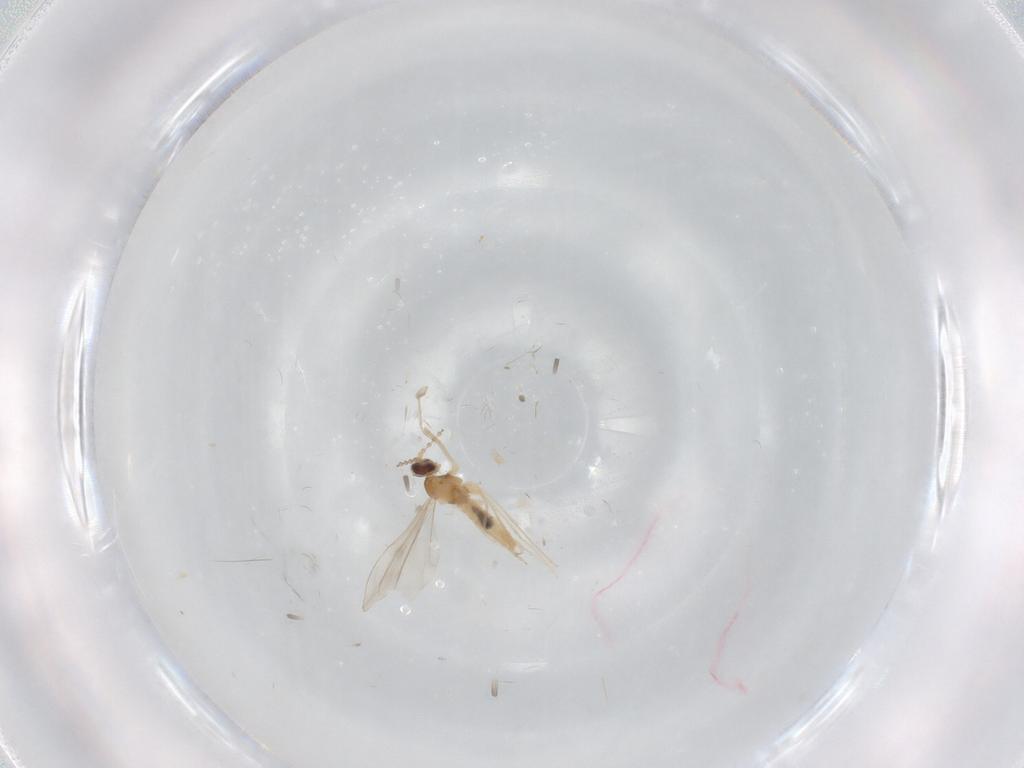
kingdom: Animalia
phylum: Arthropoda
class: Insecta
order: Diptera
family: Cecidomyiidae
